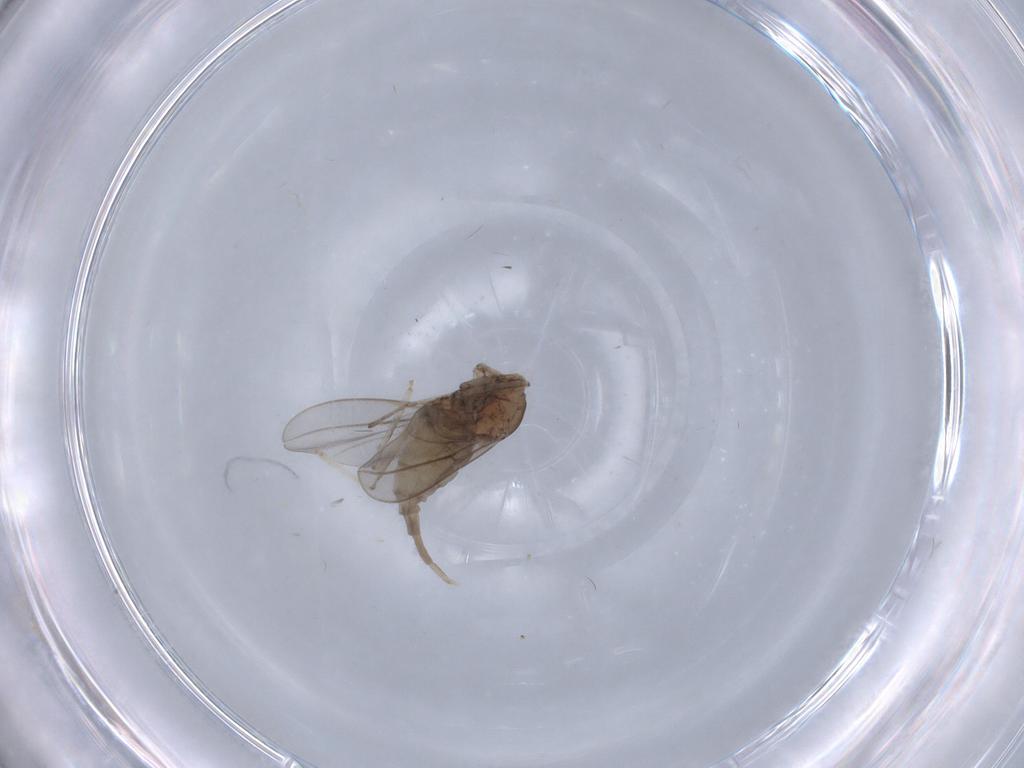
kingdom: Animalia
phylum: Arthropoda
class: Insecta
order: Diptera
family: Cecidomyiidae
